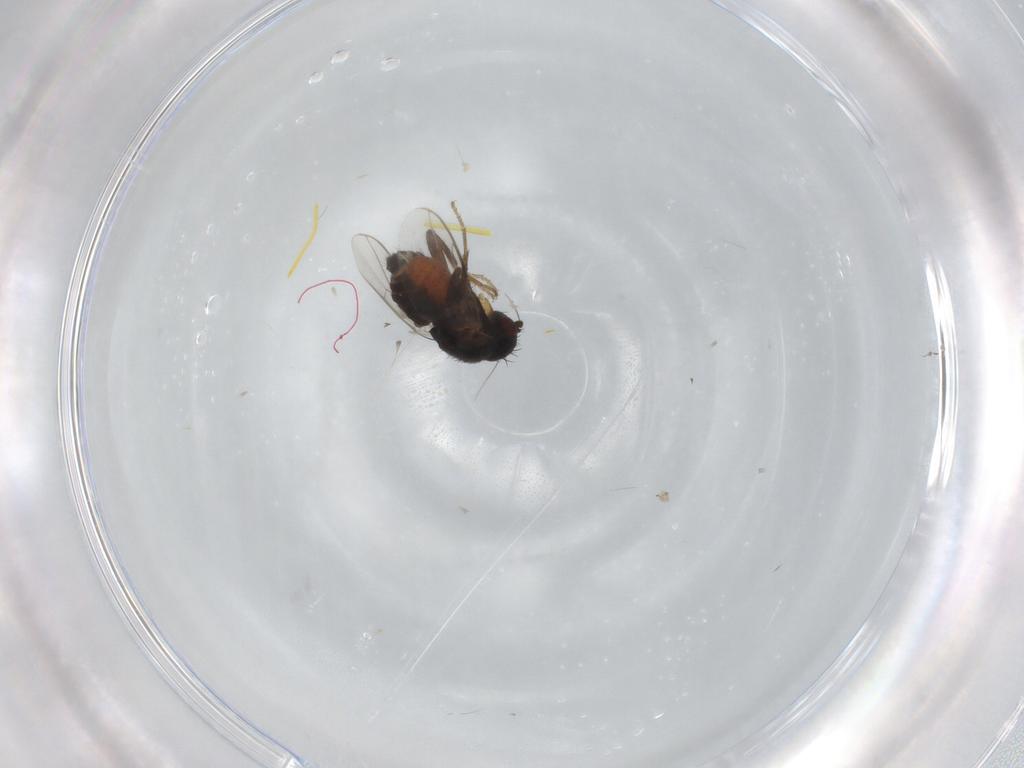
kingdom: Animalia
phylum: Arthropoda
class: Insecta
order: Diptera
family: Sphaeroceridae
